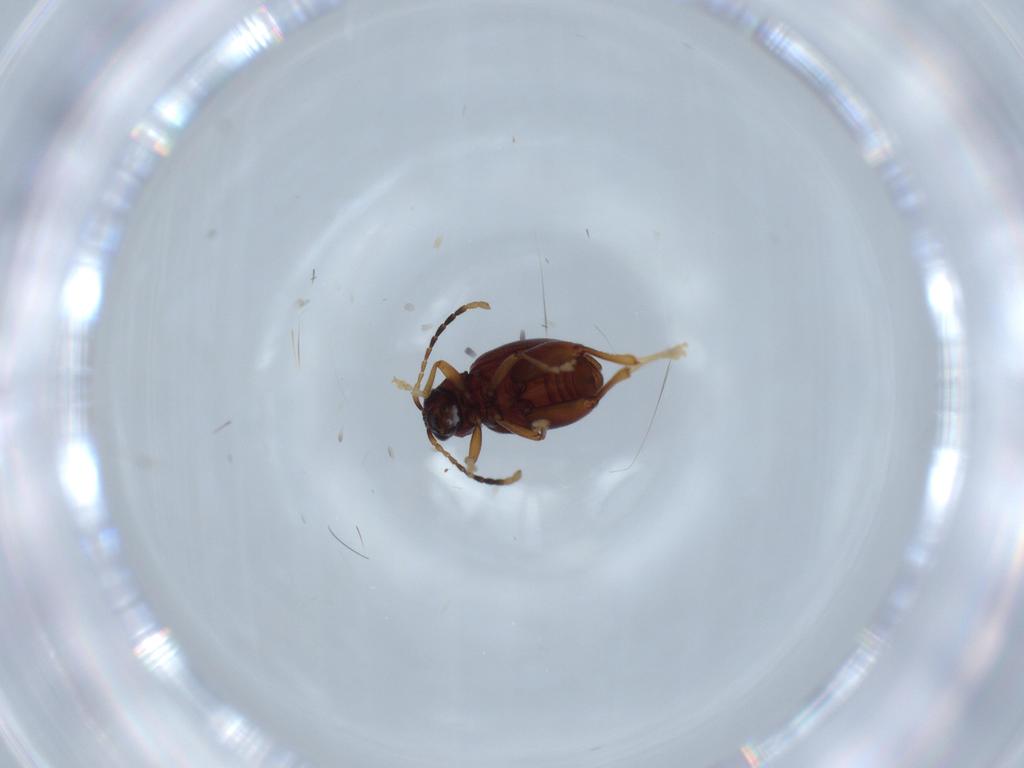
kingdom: Animalia
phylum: Arthropoda
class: Insecta
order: Coleoptera
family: Chrysomelidae
